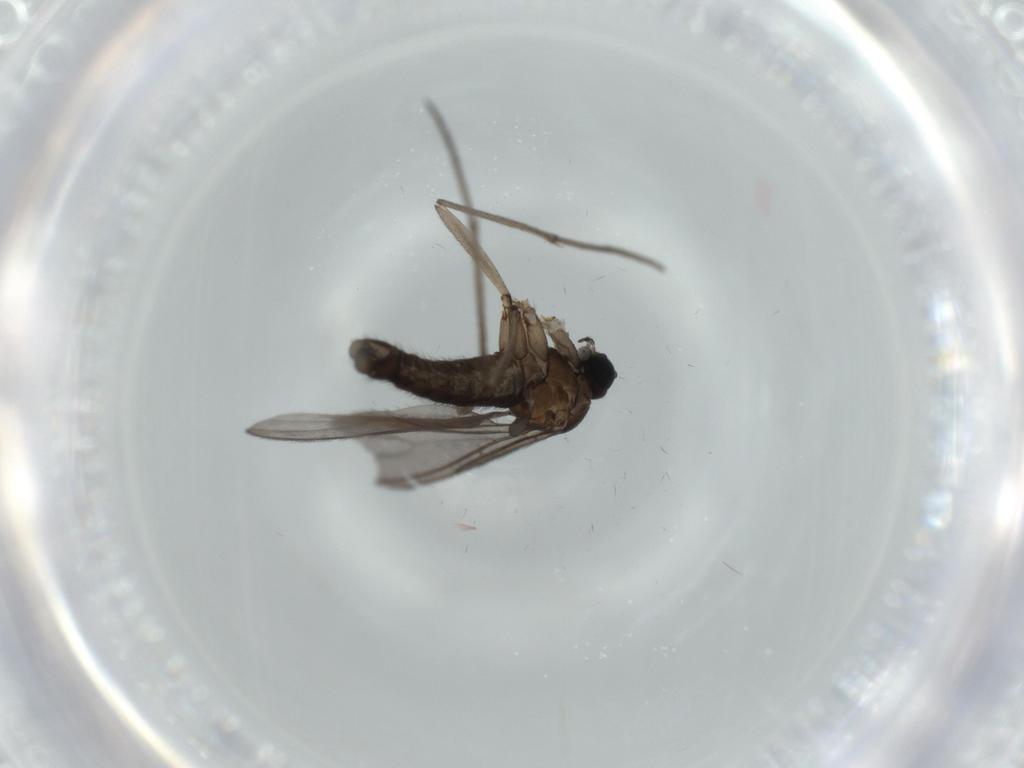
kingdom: Animalia
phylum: Arthropoda
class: Insecta
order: Diptera
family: Sciaridae
